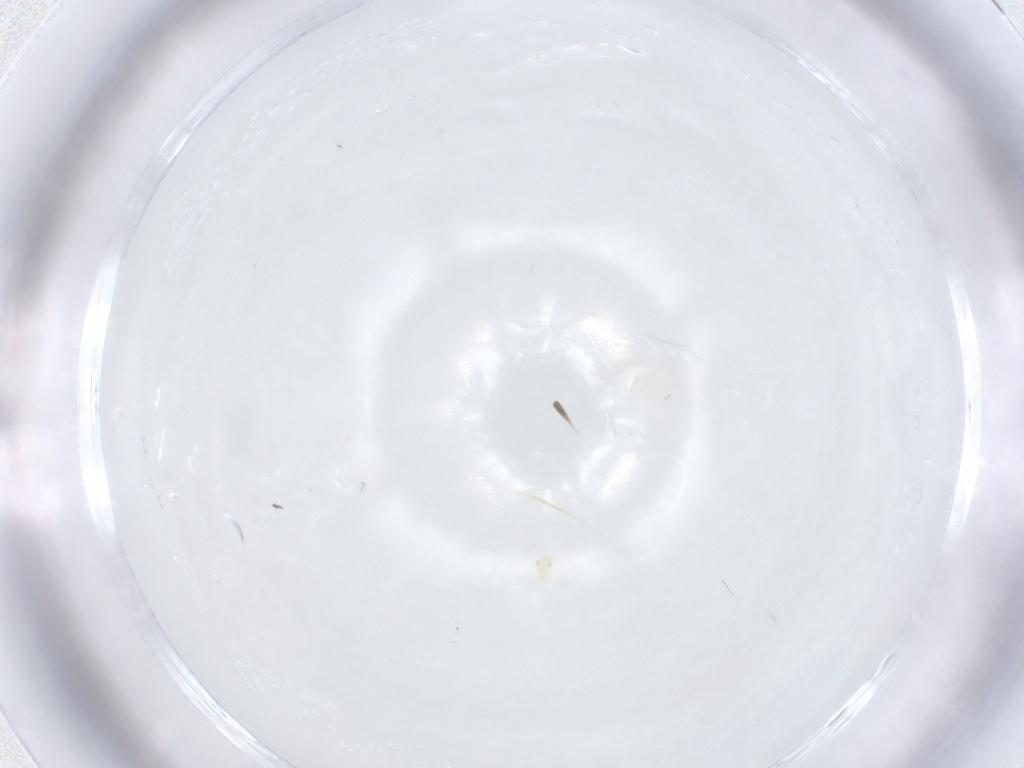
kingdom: Animalia
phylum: Arthropoda
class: Arachnida
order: Trombidiformes
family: Anystidae
